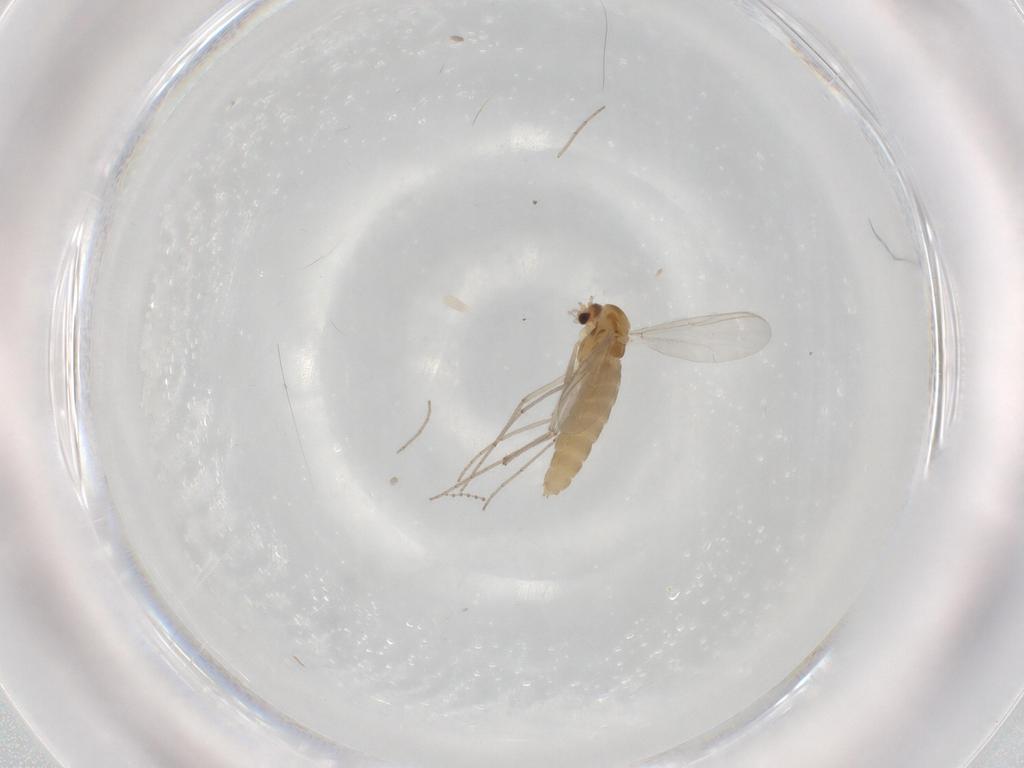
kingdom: Animalia
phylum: Arthropoda
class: Insecta
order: Diptera
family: Chironomidae
